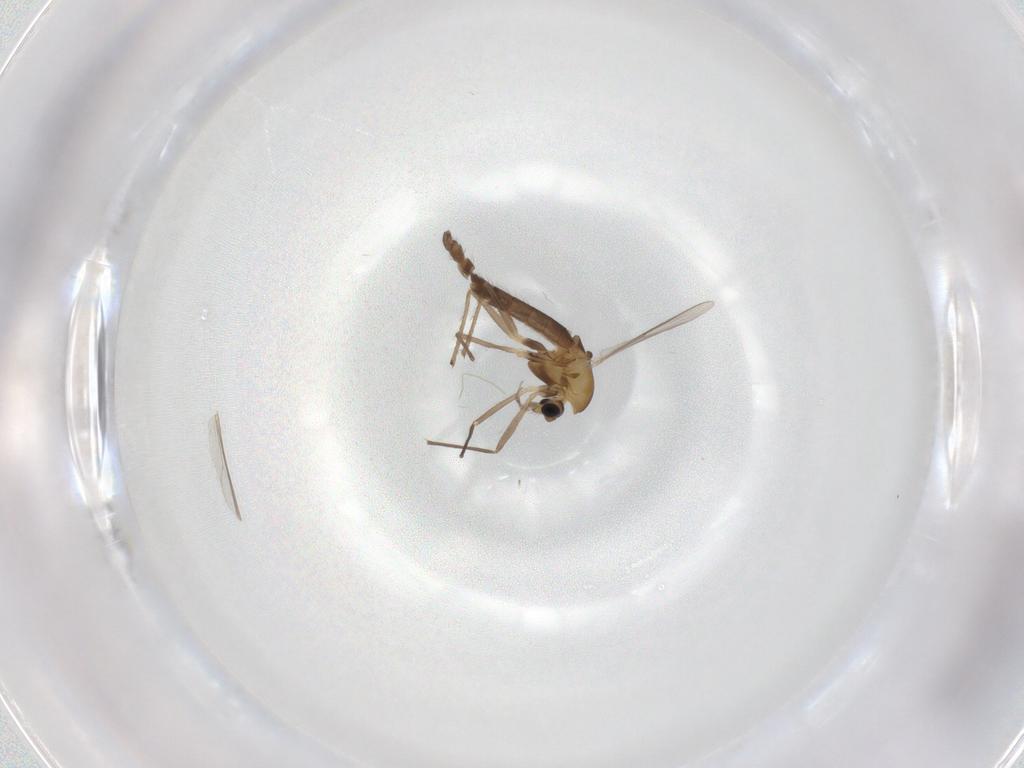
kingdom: Animalia
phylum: Arthropoda
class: Insecta
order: Diptera
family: Chironomidae
